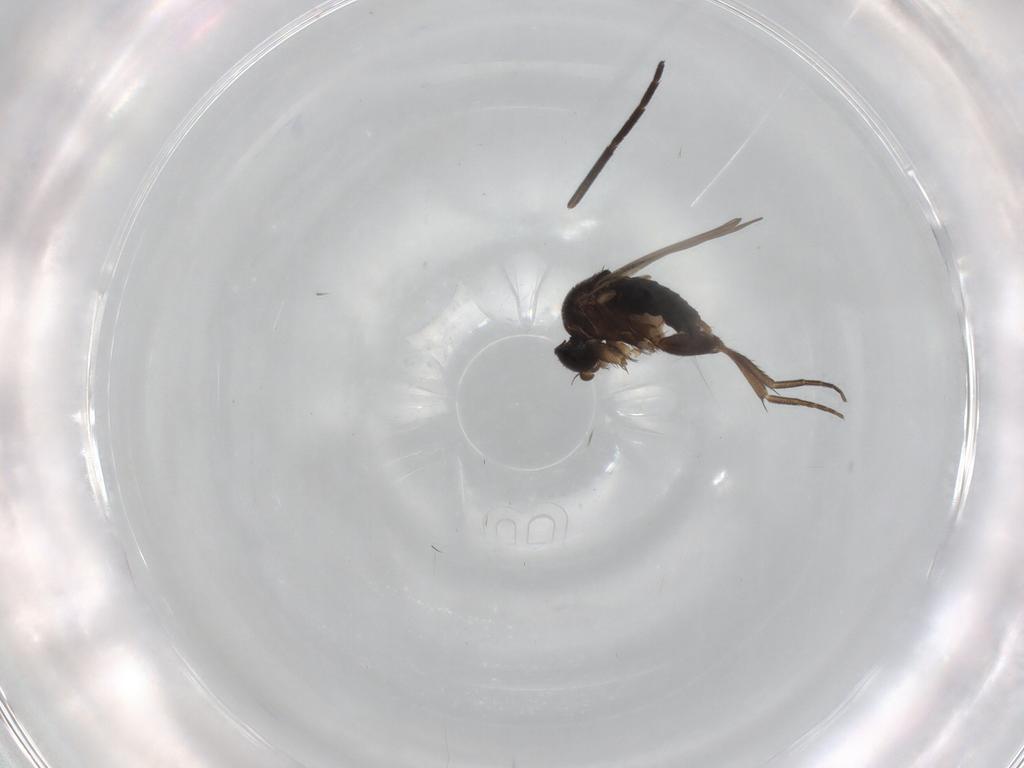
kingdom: Animalia
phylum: Arthropoda
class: Insecta
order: Diptera
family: Phoridae
